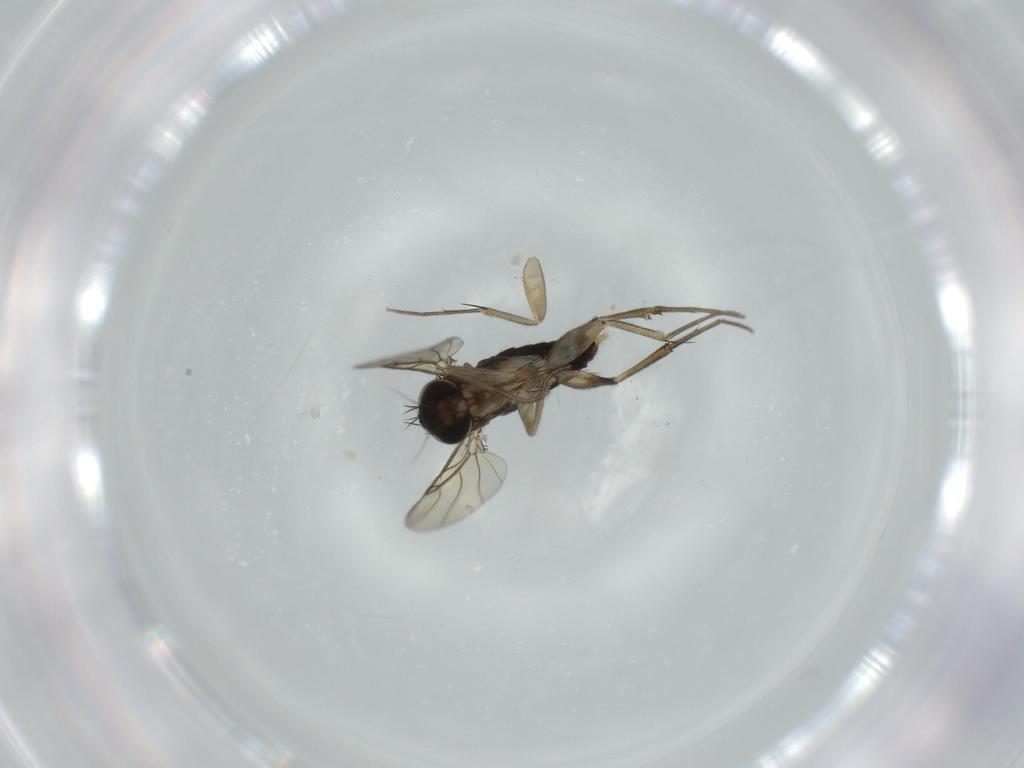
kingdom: Animalia
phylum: Arthropoda
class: Insecta
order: Diptera
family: Phoridae
